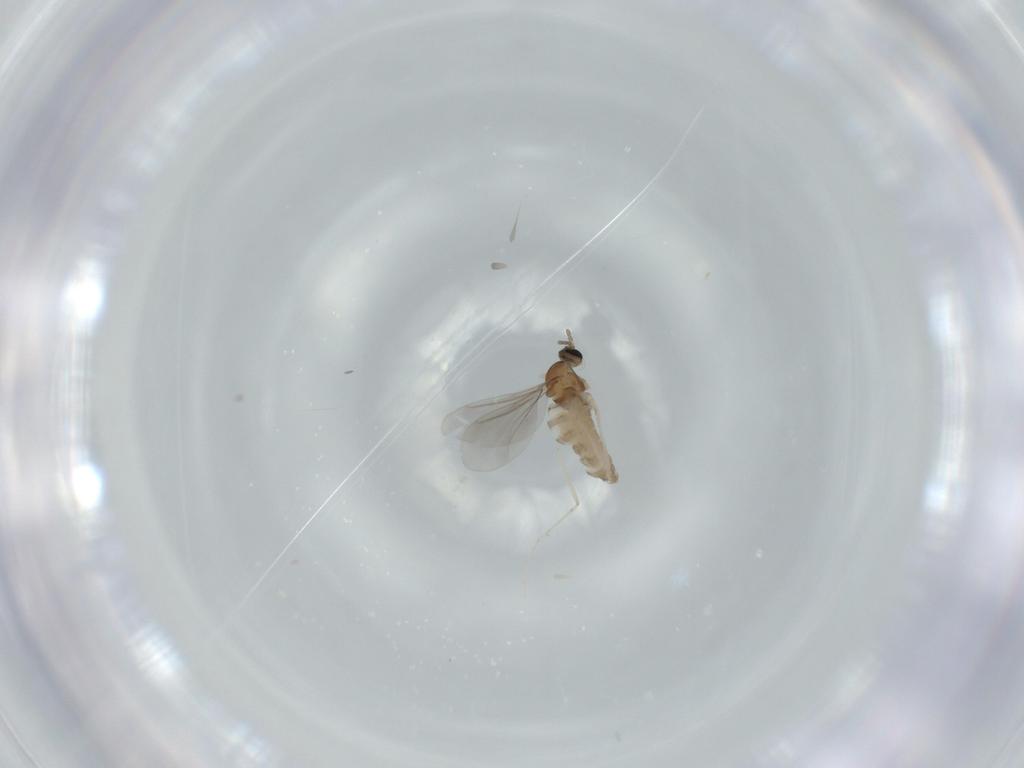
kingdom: Animalia
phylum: Arthropoda
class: Insecta
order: Diptera
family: Cecidomyiidae
